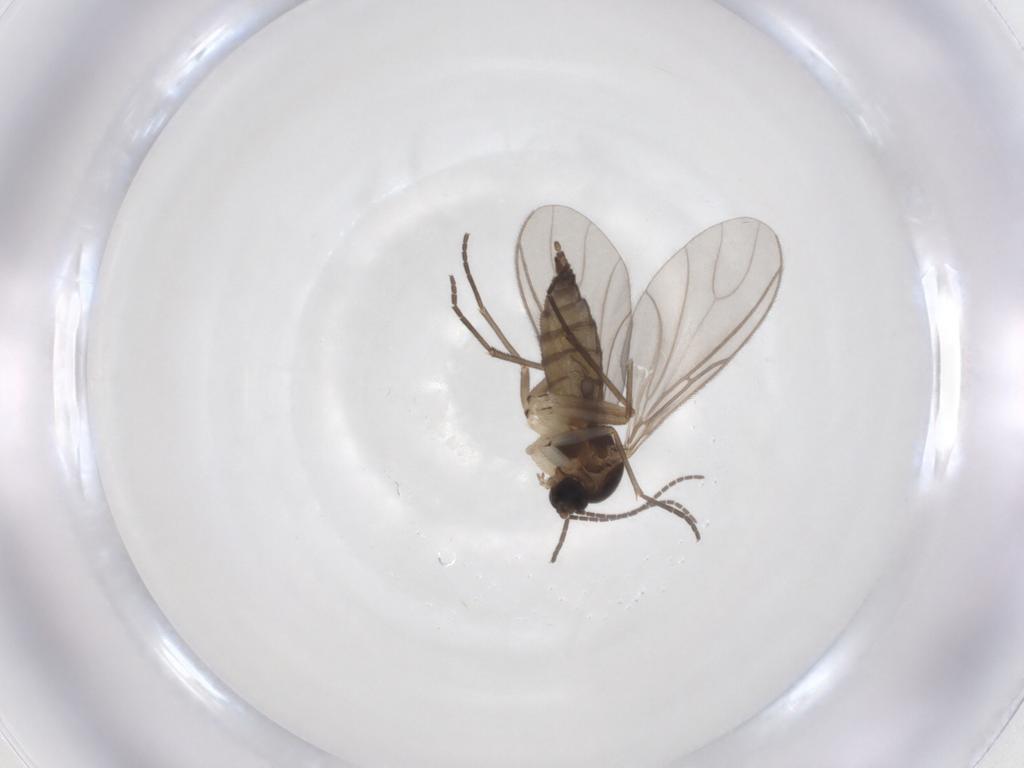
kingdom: Animalia
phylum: Arthropoda
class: Insecta
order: Diptera
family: Sciaridae
